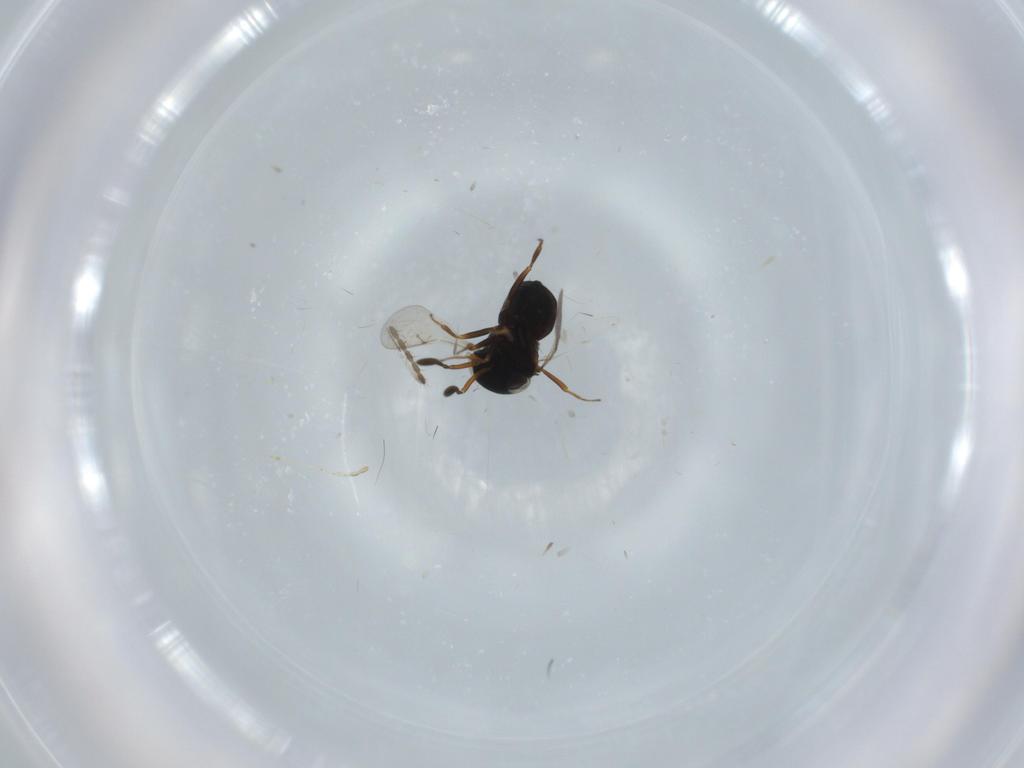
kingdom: Animalia
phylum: Arthropoda
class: Insecta
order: Hymenoptera
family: Scelionidae
